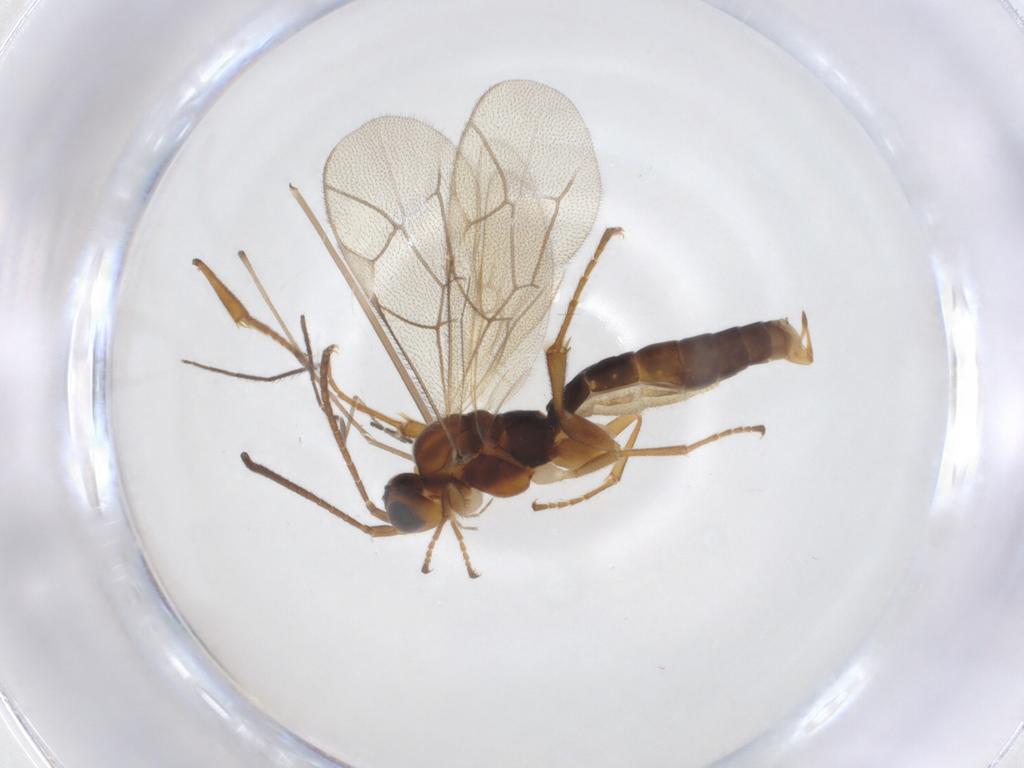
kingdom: Animalia
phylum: Arthropoda
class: Insecta
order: Hymenoptera
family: Ichneumonidae
